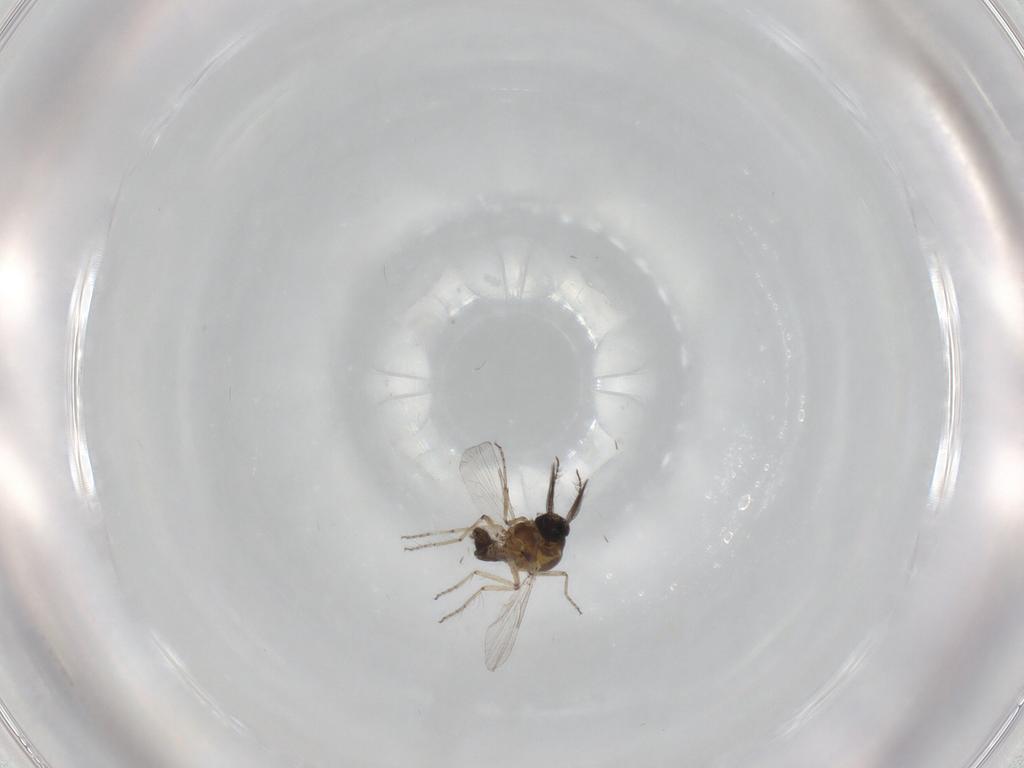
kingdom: Animalia
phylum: Arthropoda
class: Insecta
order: Diptera
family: Ceratopogonidae
